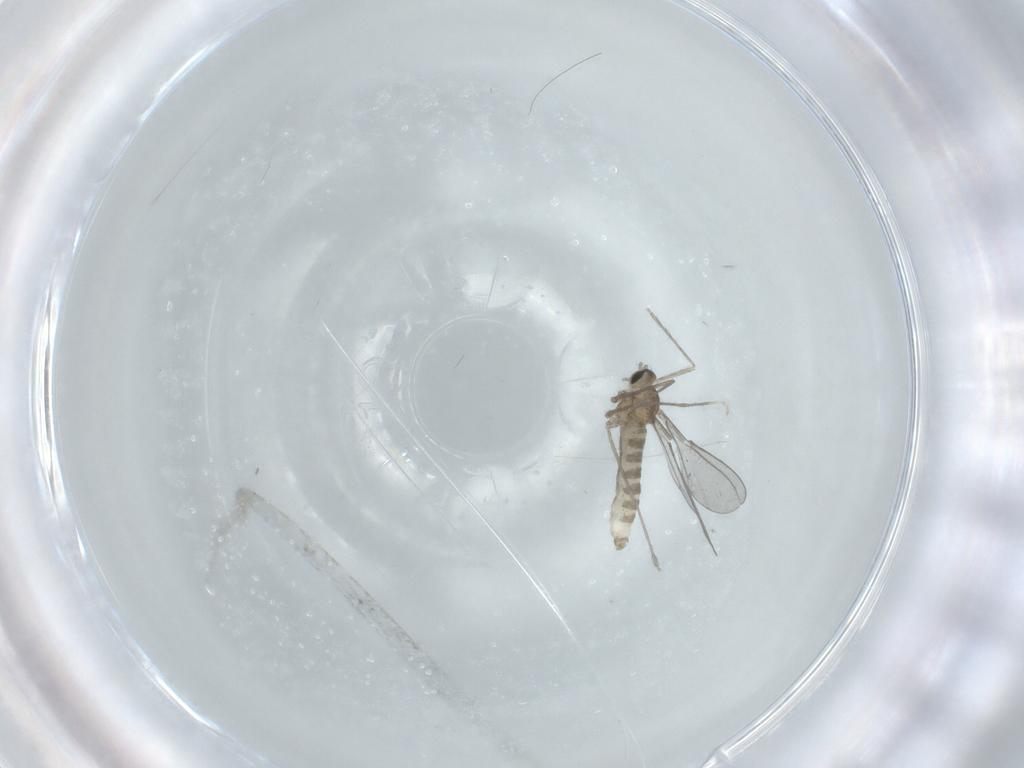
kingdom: Animalia
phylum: Arthropoda
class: Insecta
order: Diptera
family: Cecidomyiidae
